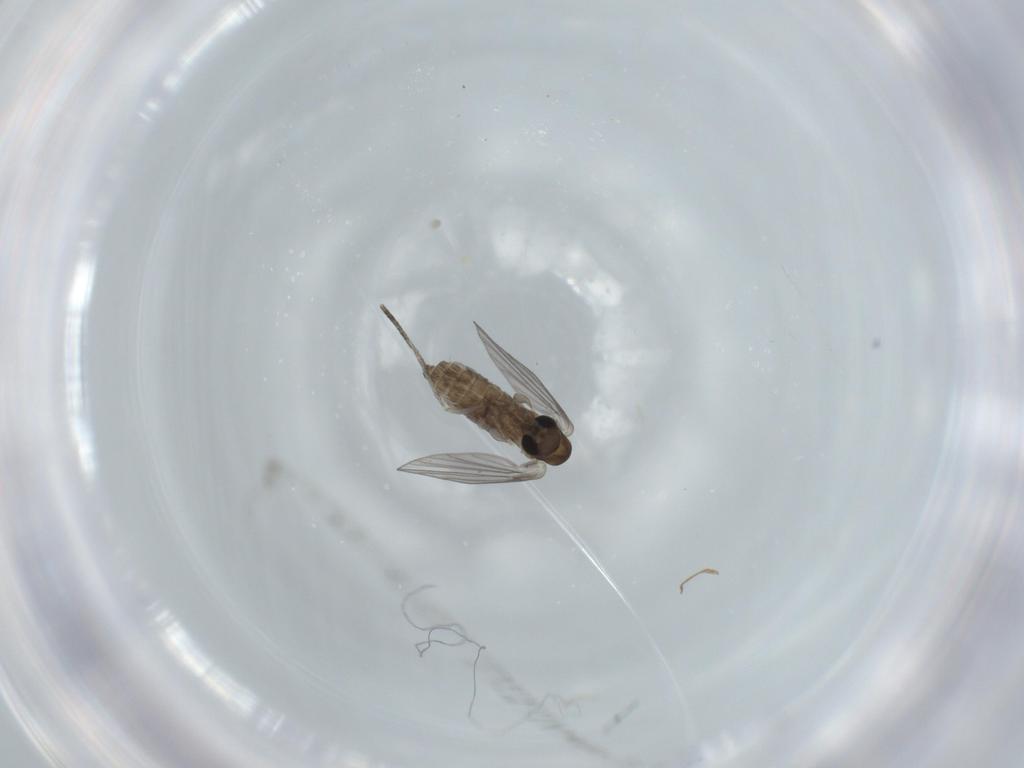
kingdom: Animalia
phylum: Arthropoda
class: Insecta
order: Diptera
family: Psychodidae
